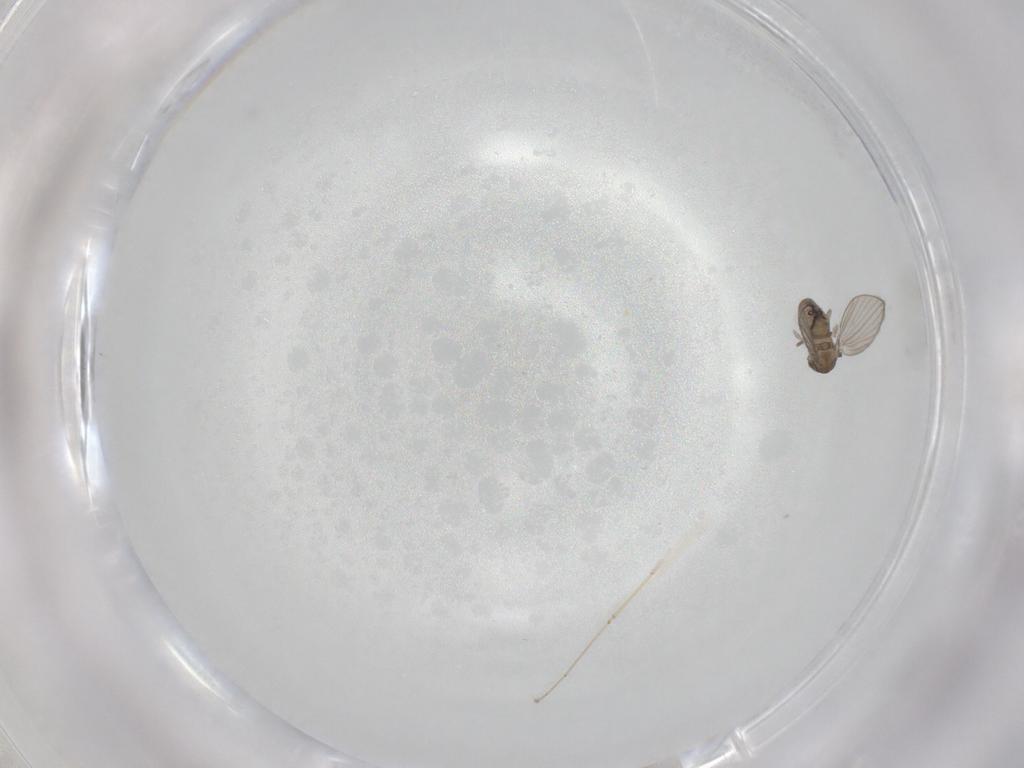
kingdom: Animalia
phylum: Arthropoda
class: Insecta
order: Diptera
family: Psychodidae
